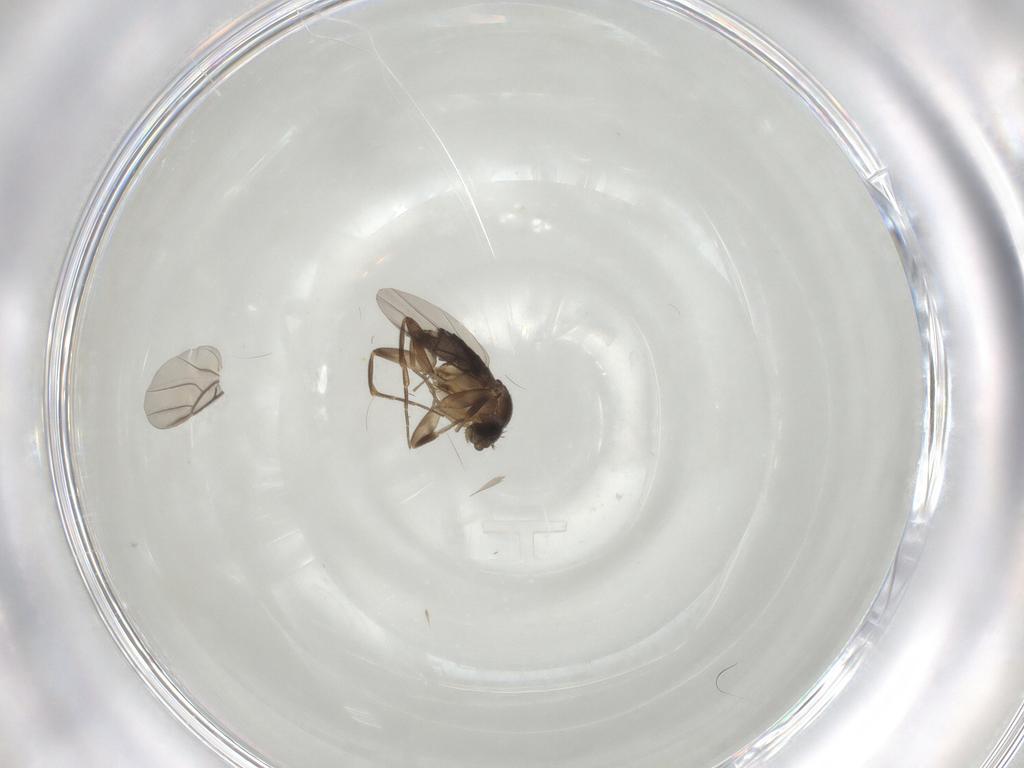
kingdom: Animalia
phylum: Arthropoda
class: Insecta
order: Diptera
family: Phoridae
